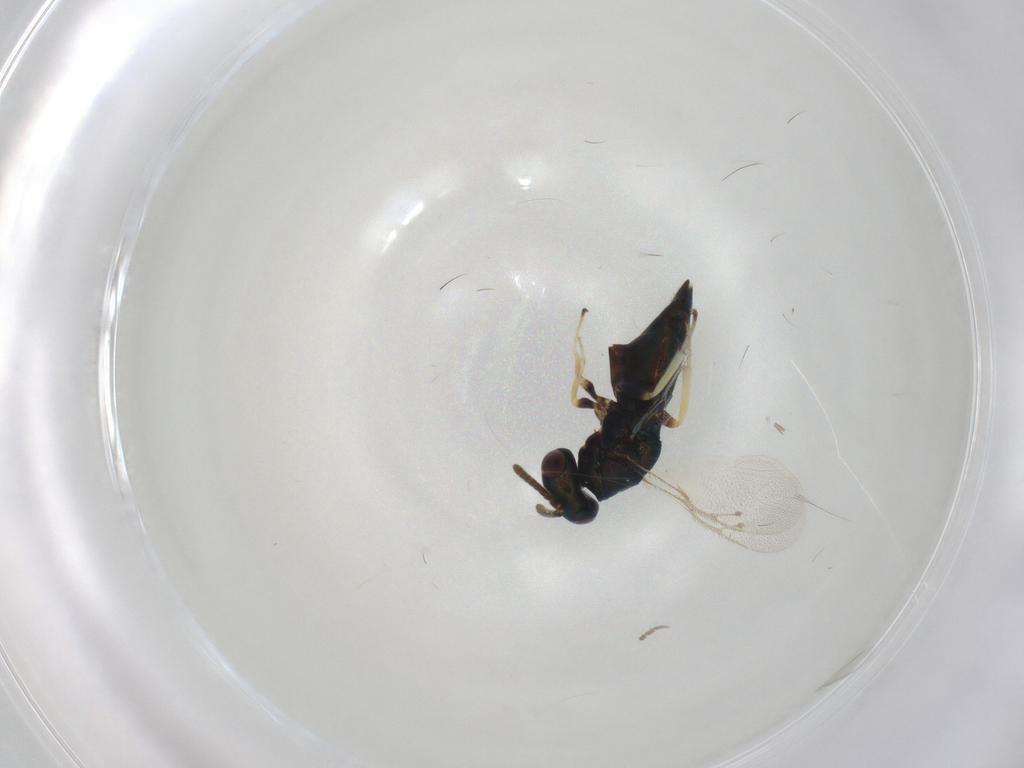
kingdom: Animalia
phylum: Arthropoda
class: Insecta
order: Hymenoptera
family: Pteromalidae
